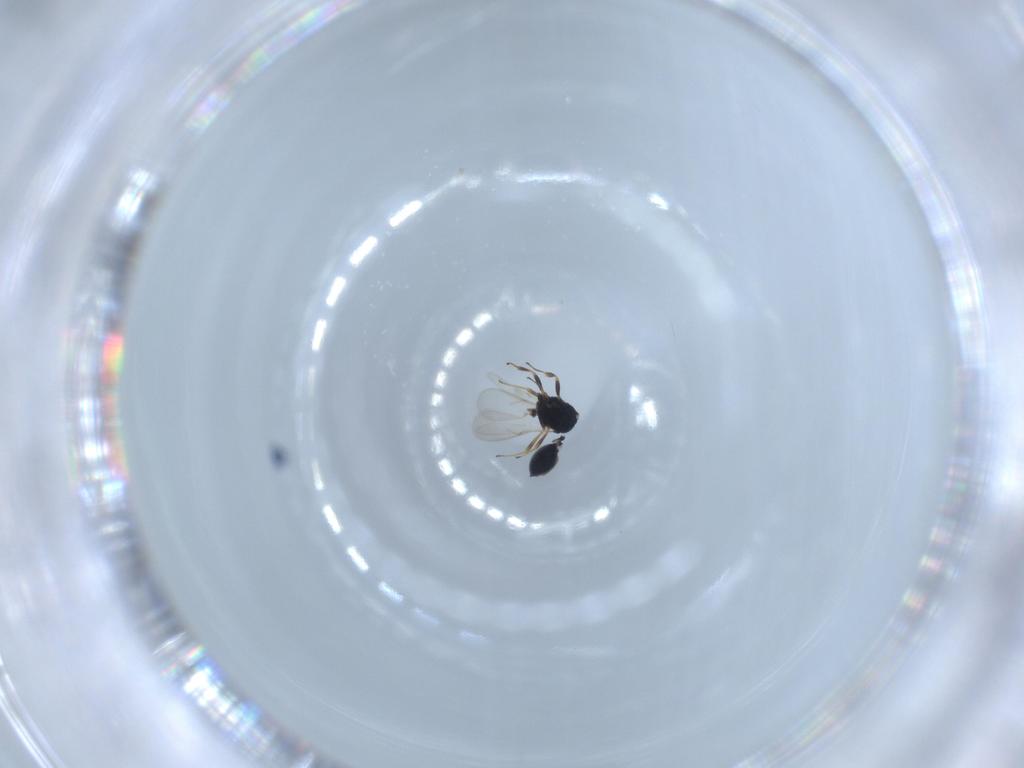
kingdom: Animalia
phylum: Arthropoda
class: Insecta
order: Hymenoptera
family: Scelionidae
